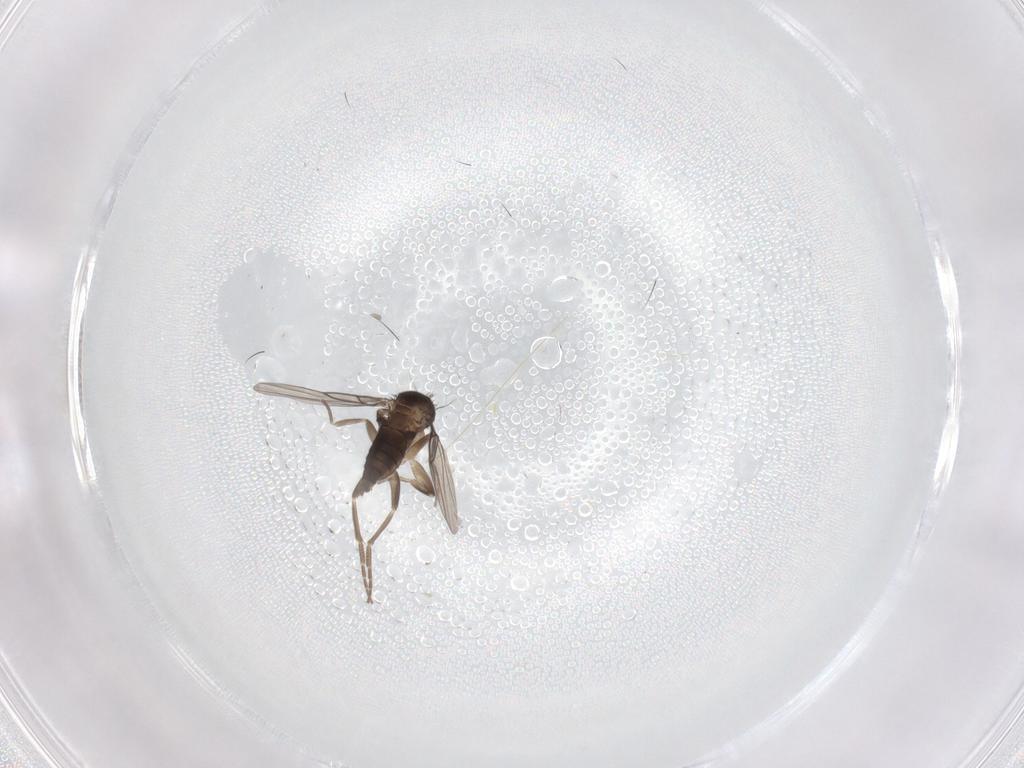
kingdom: Animalia
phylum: Arthropoda
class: Insecta
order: Diptera
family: Phoridae
